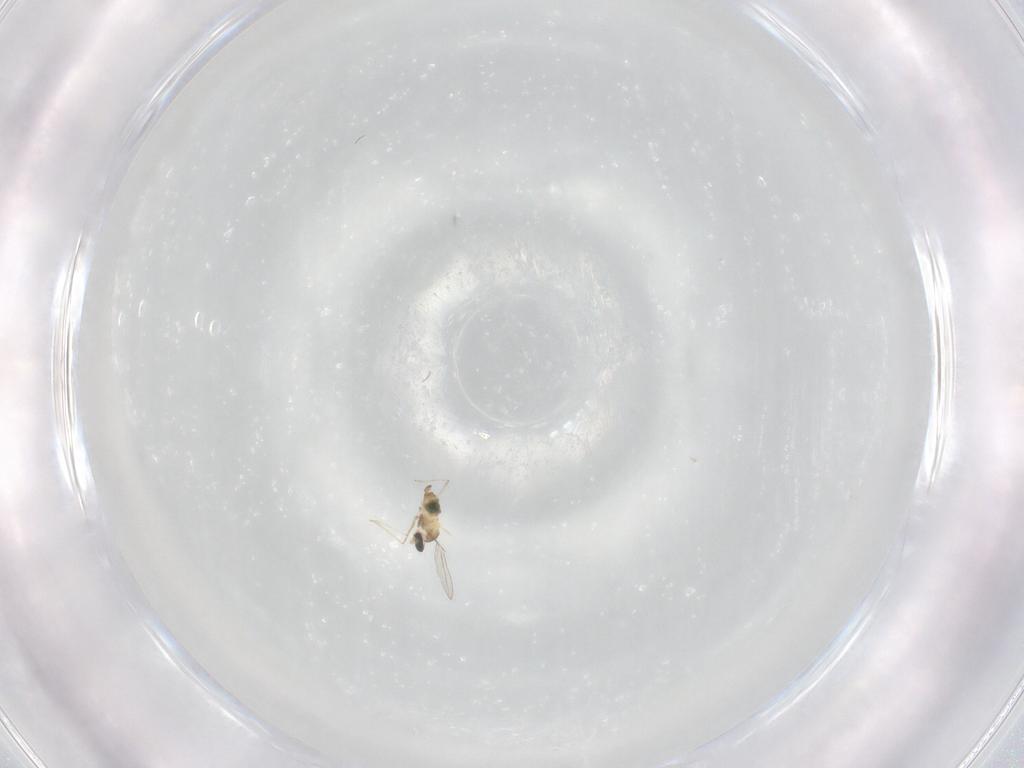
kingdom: Animalia
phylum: Arthropoda
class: Insecta
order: Diptera
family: Cecidomyiidae
